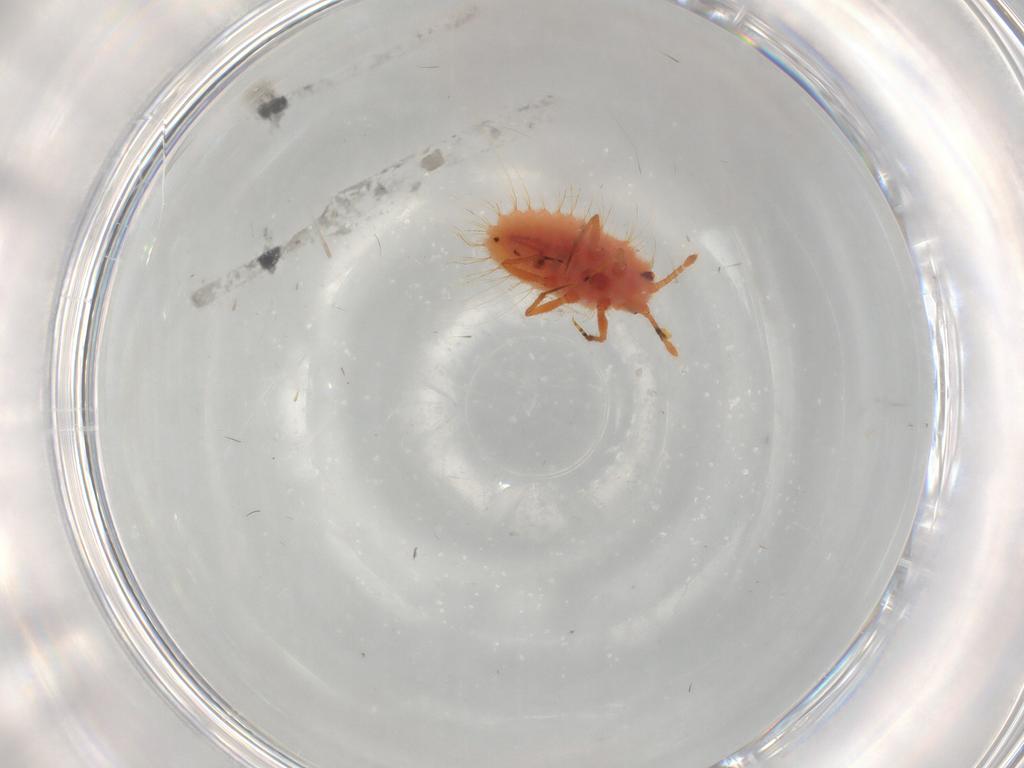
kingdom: Animalia
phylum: Arthropoda
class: Insecta
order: Hemiptera
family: Coccoidea_incertae_sedis
